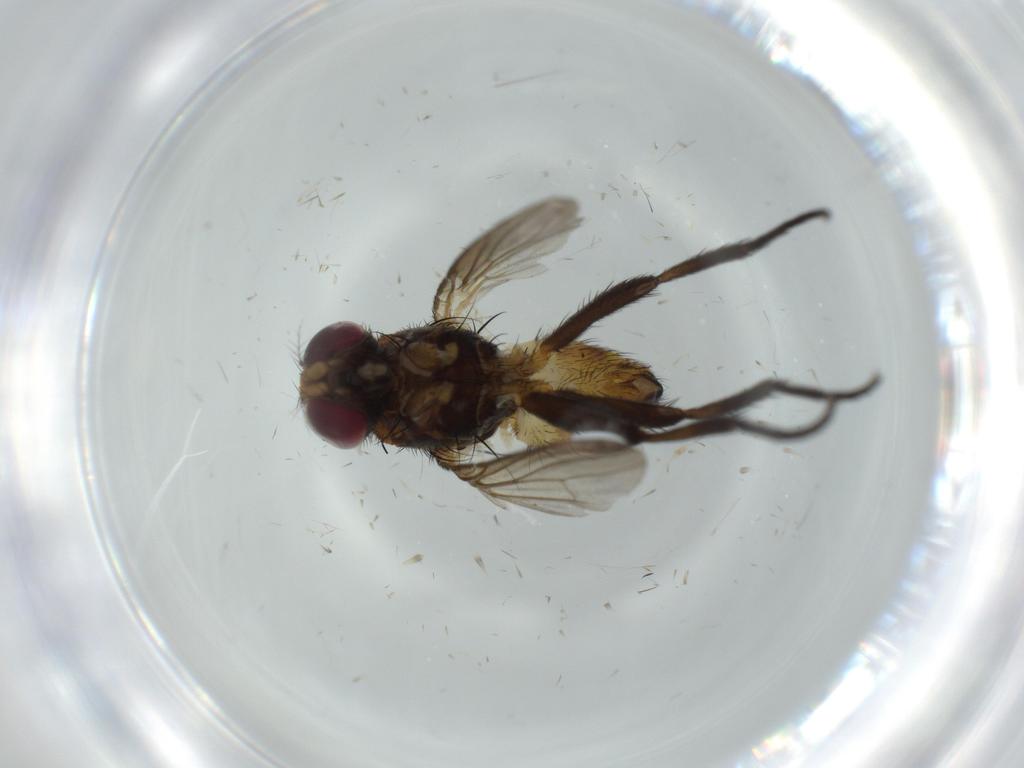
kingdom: Animalia
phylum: Arthropoda
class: Insecta
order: Diptera
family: Anthomyiidae
